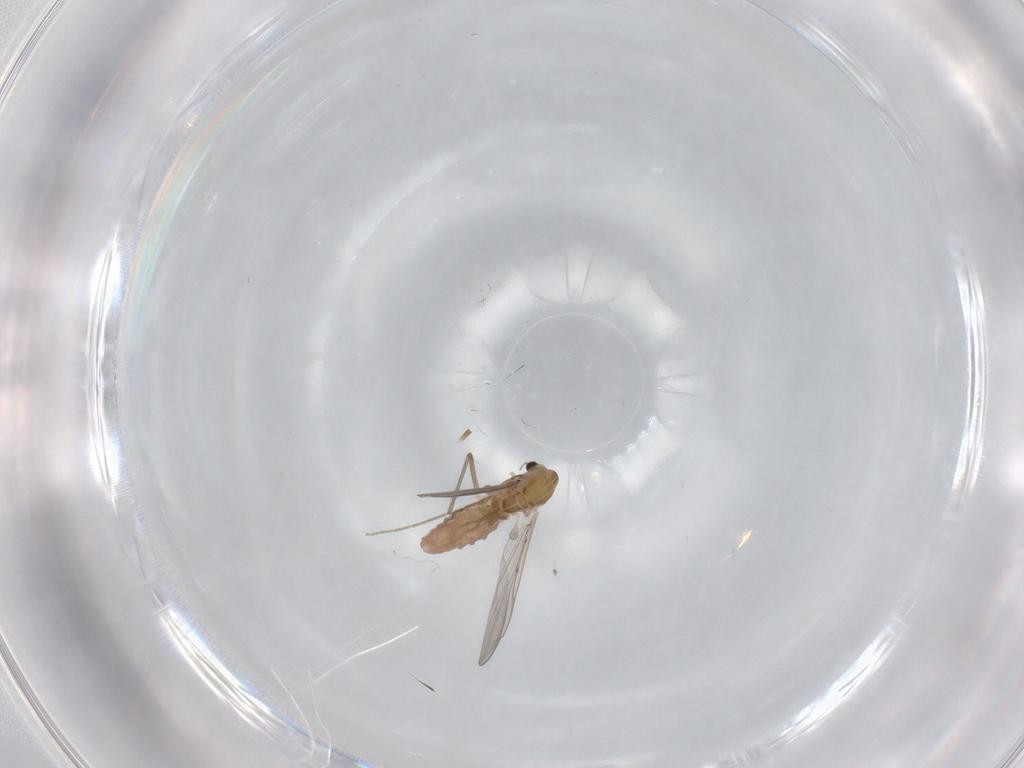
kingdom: Animalia
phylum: Arthropoda
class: Insecta
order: Diptera
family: Chironomidae
